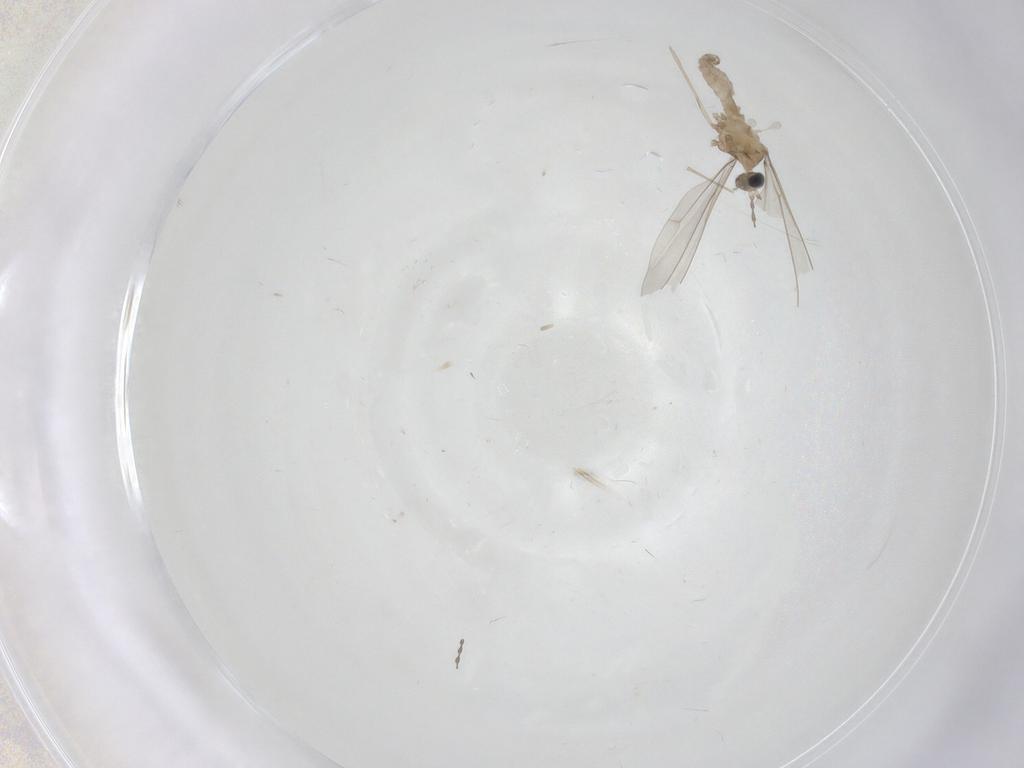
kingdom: Animalia
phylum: Arthropoda
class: Insecta
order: Diptera
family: Cecidomyiidae
